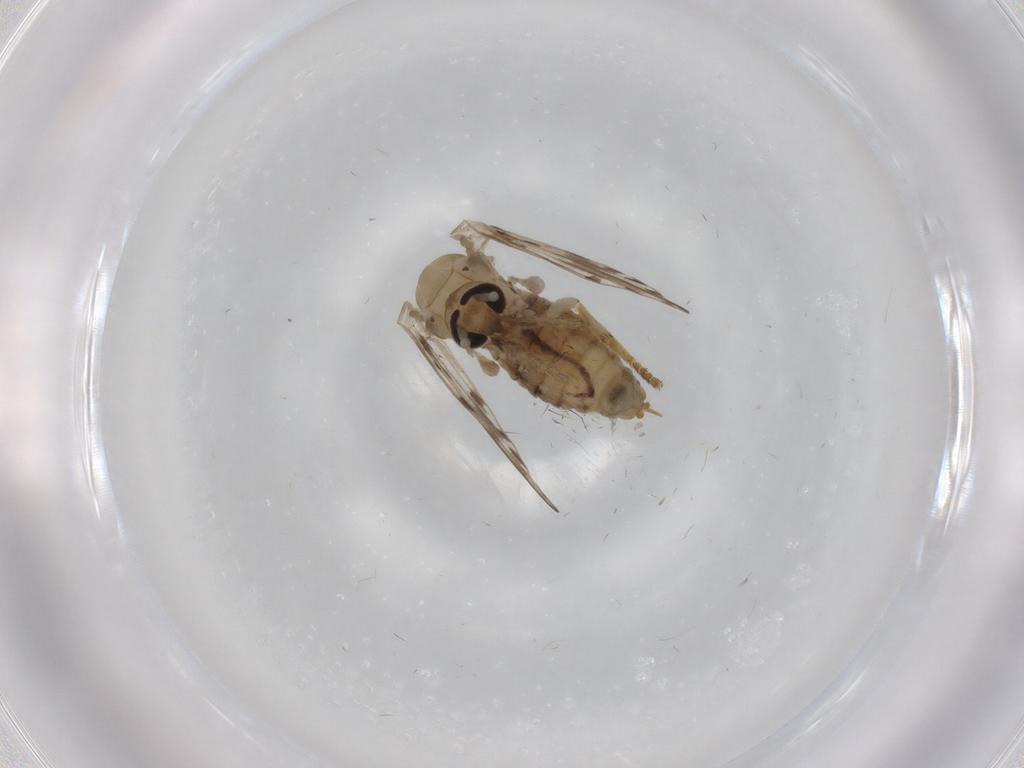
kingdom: Animalia
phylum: Arthropoda
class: Insecta
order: Diptera
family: Psychodidae
